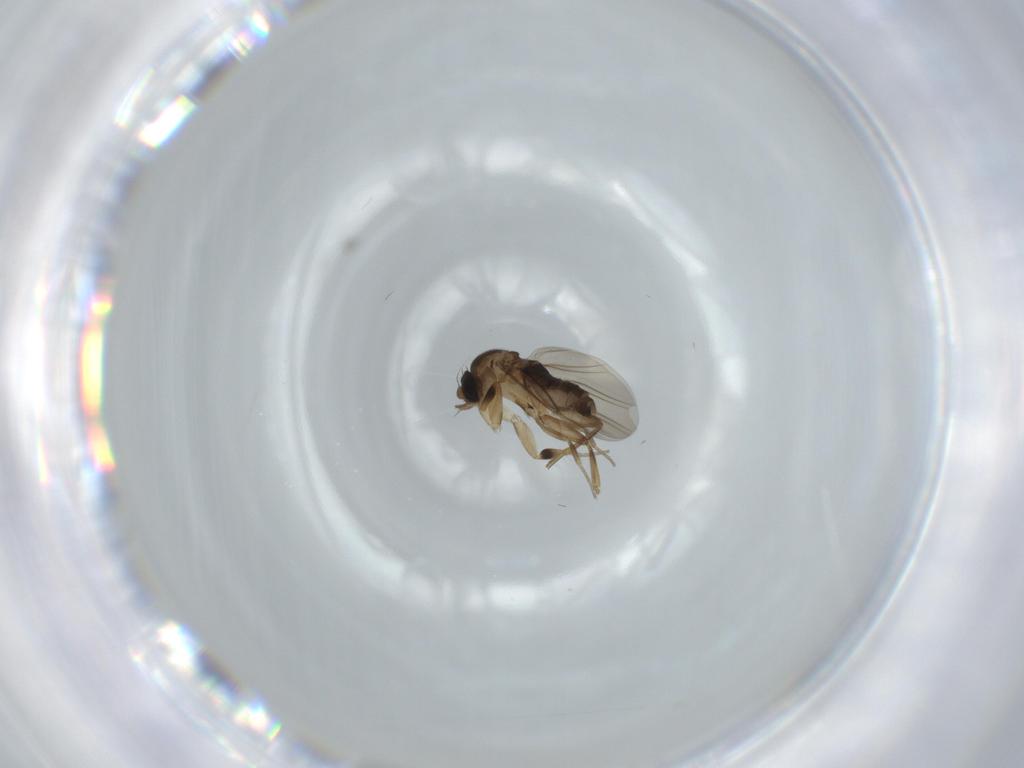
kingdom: Animalia
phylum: Arthropoda
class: Insecta
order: Diptera
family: Phoridae
